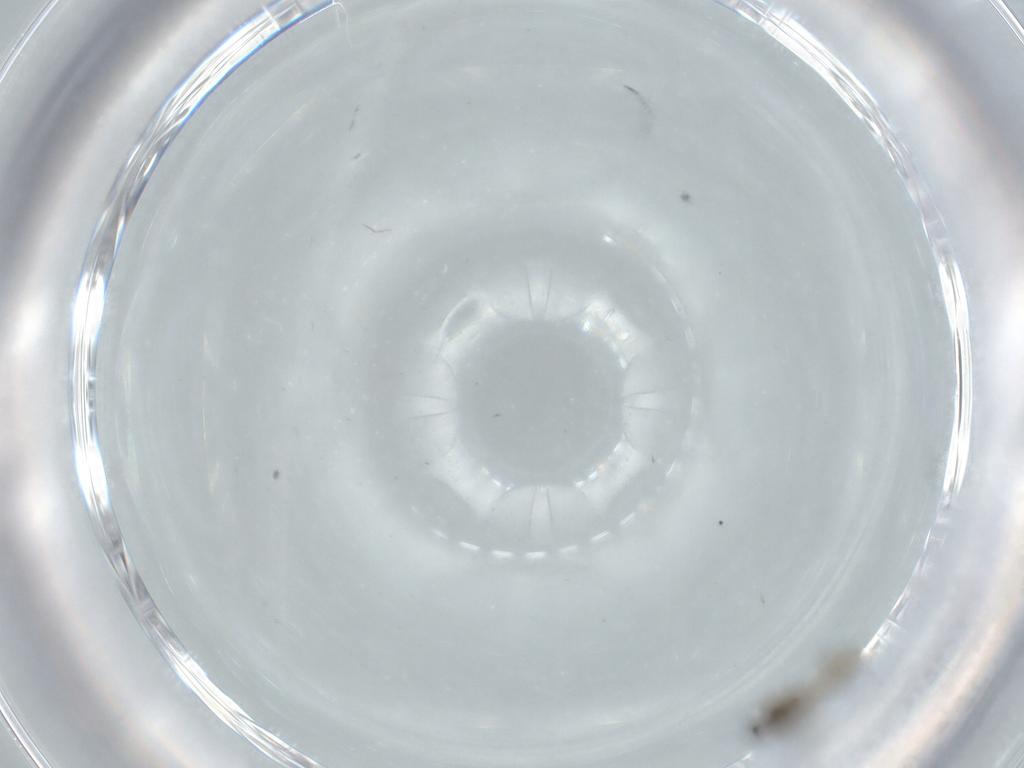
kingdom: Animalia
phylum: Arthropoda
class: Insecta
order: Diptera
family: Cecidomyiidae
